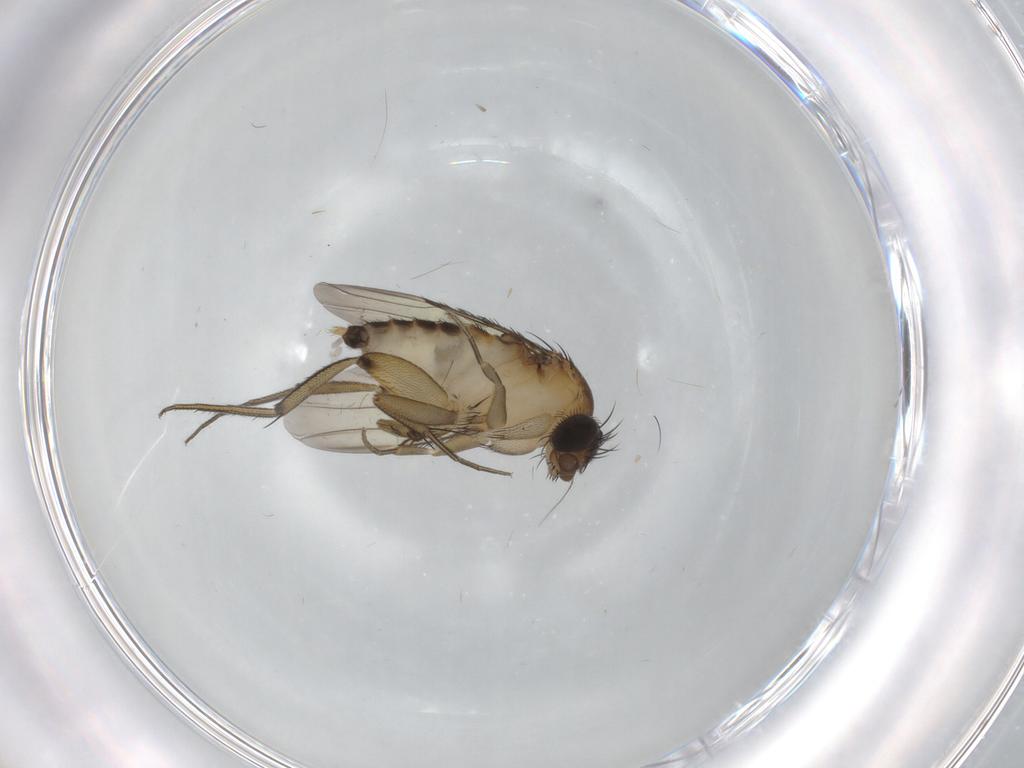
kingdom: Animalia
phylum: Arthropoda
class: Insecta
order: Diptera
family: Phoridae
